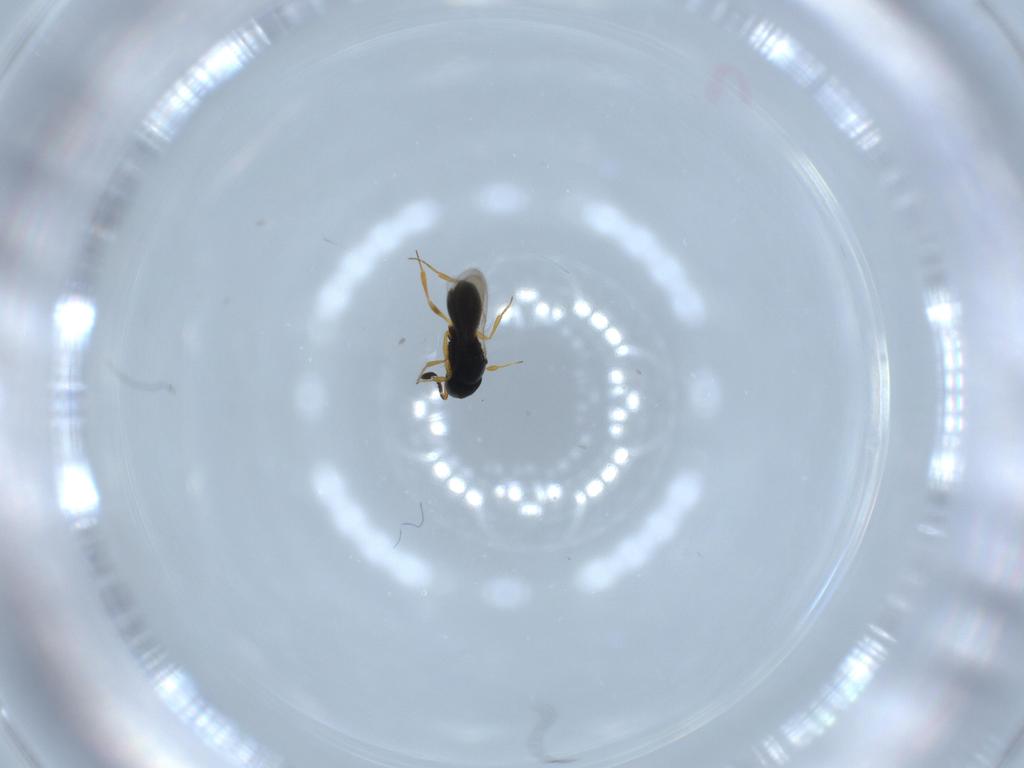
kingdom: Animalia
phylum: Arthropoda
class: Insecta
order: Hymenoptera
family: Scelionidae
